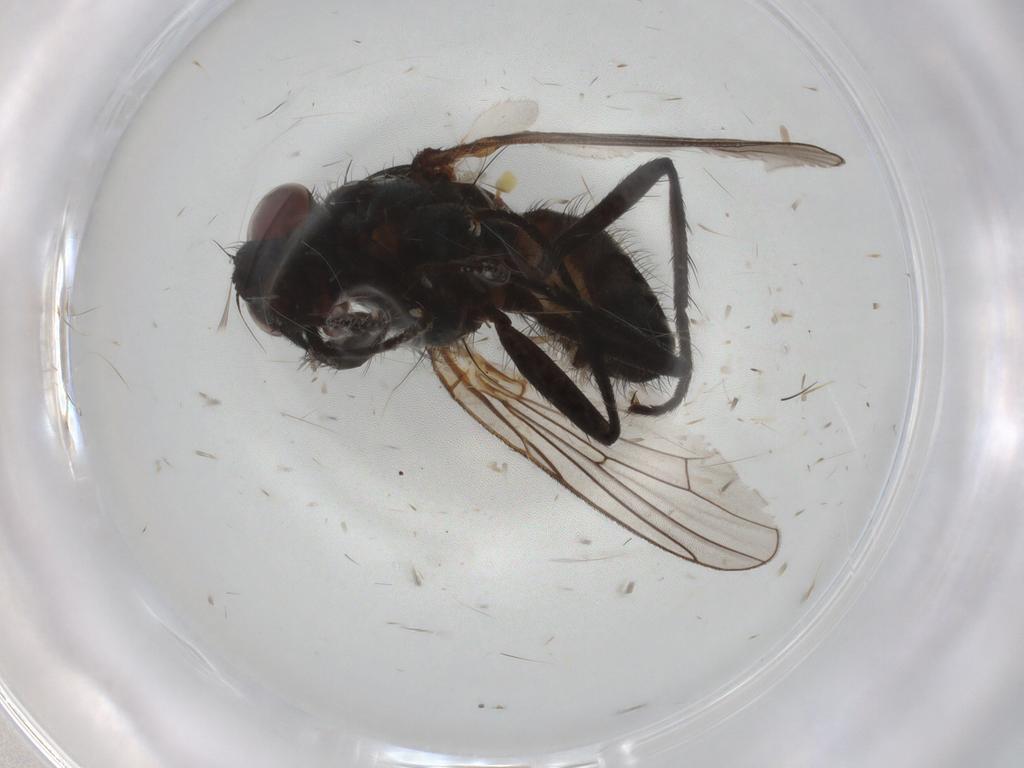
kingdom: Animalia
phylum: Arthropoda
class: Insecta
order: Diptera
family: Anthomyiidae
